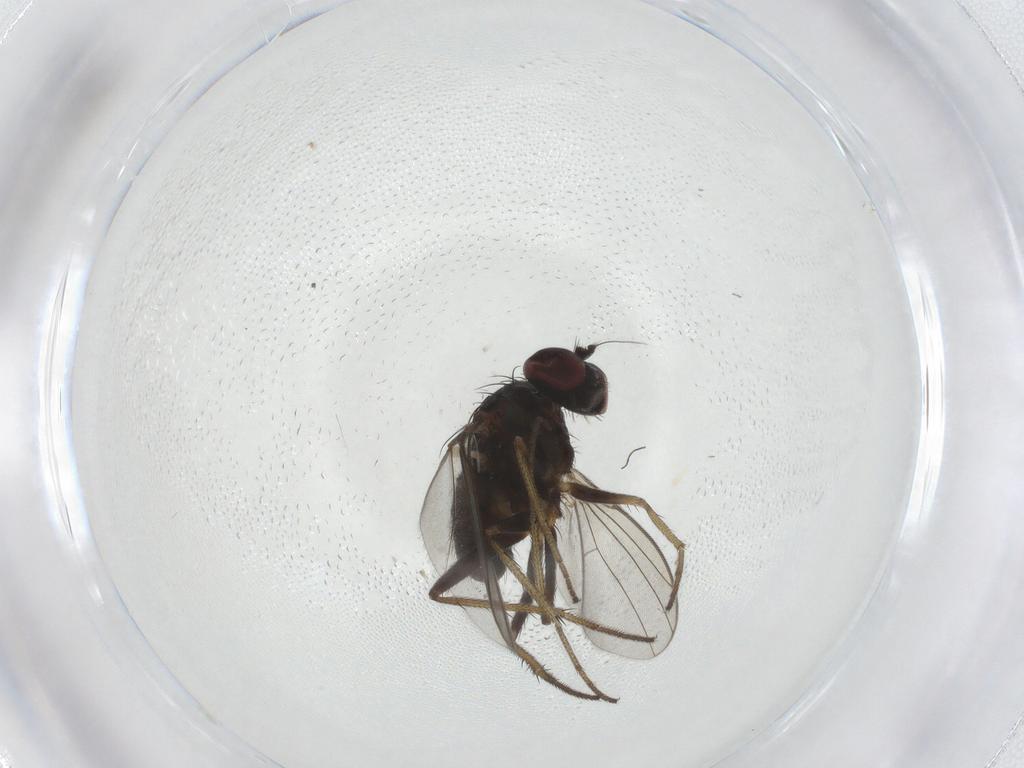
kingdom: Animalia
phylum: Arthropoda
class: Insecta
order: Diptera
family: Dolichopodidae
